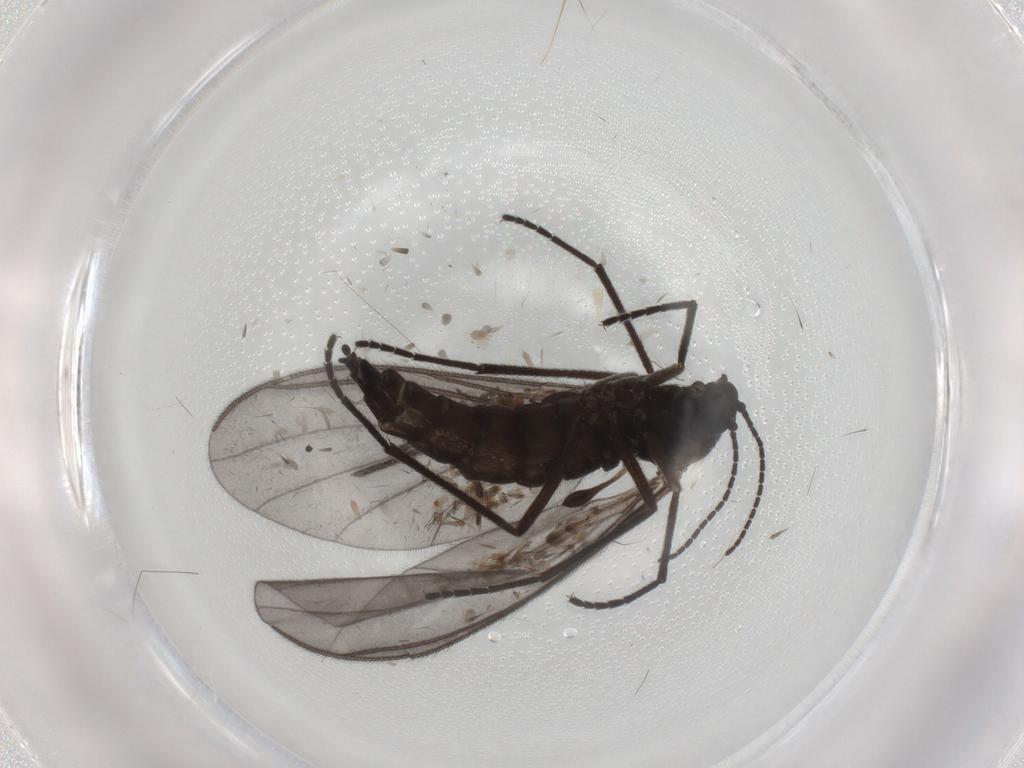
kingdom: Animalia
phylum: Arthropoda
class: Insecta
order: Diptera
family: Sciaridae
